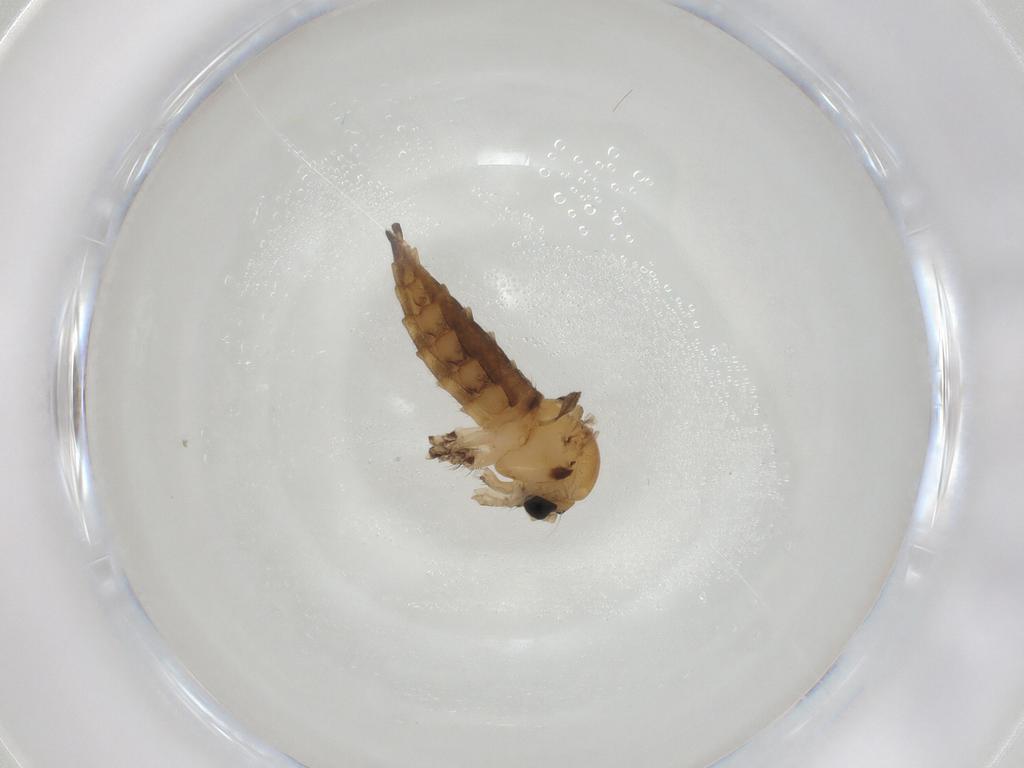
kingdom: Animalia
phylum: Arthropoda
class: Insecta
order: Diptera
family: Sciaridae
